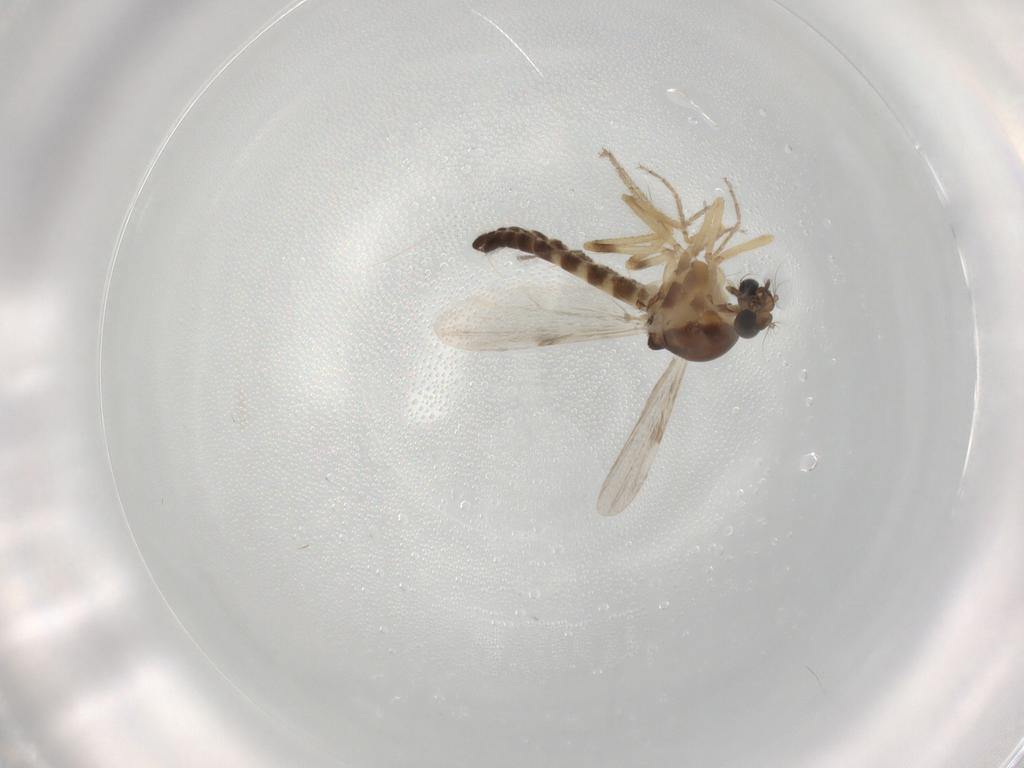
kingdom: Animalia
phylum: Arthropoda
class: Insecta
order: Diptera
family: Ceratopogonidae
